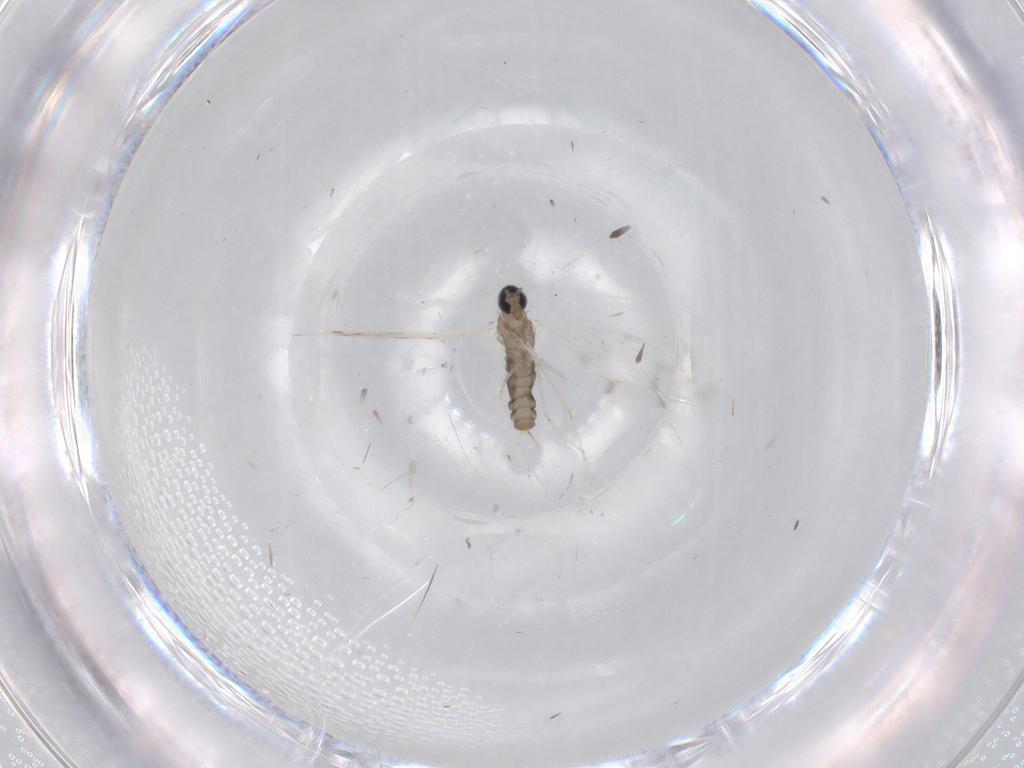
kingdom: Animalia
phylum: Arthropoda
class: Insecta
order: Diptera
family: Cecidomyiidae
